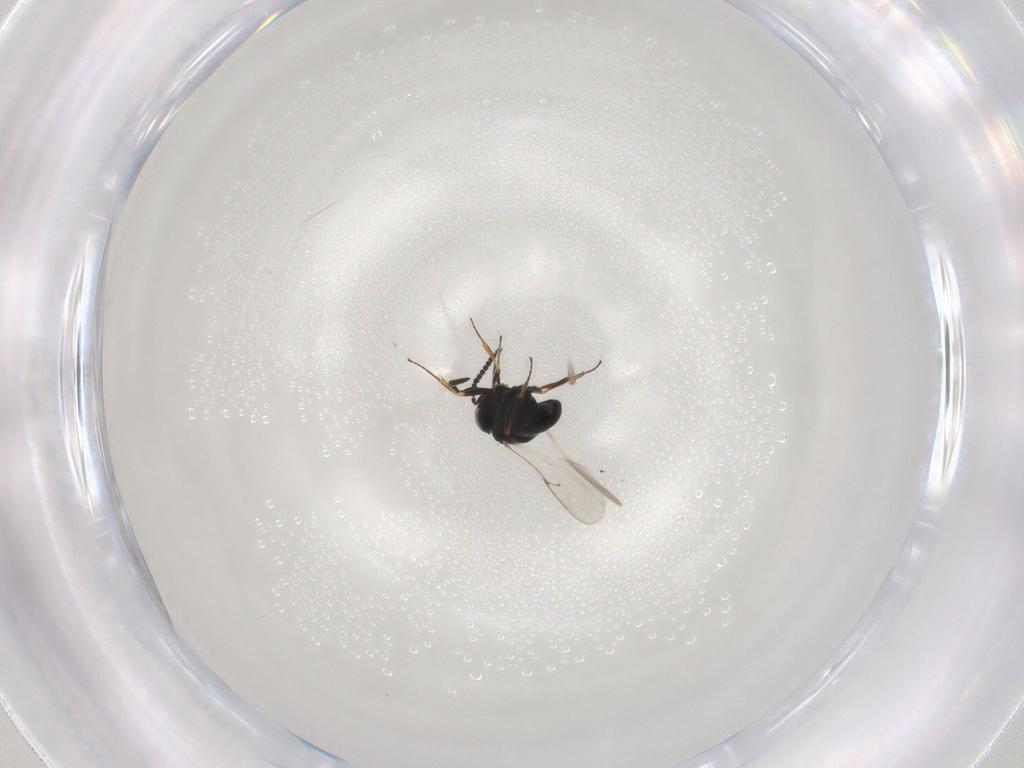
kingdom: Animalia
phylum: Arthropoda
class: Insecta
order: Hymenoptera
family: Scelionidae
